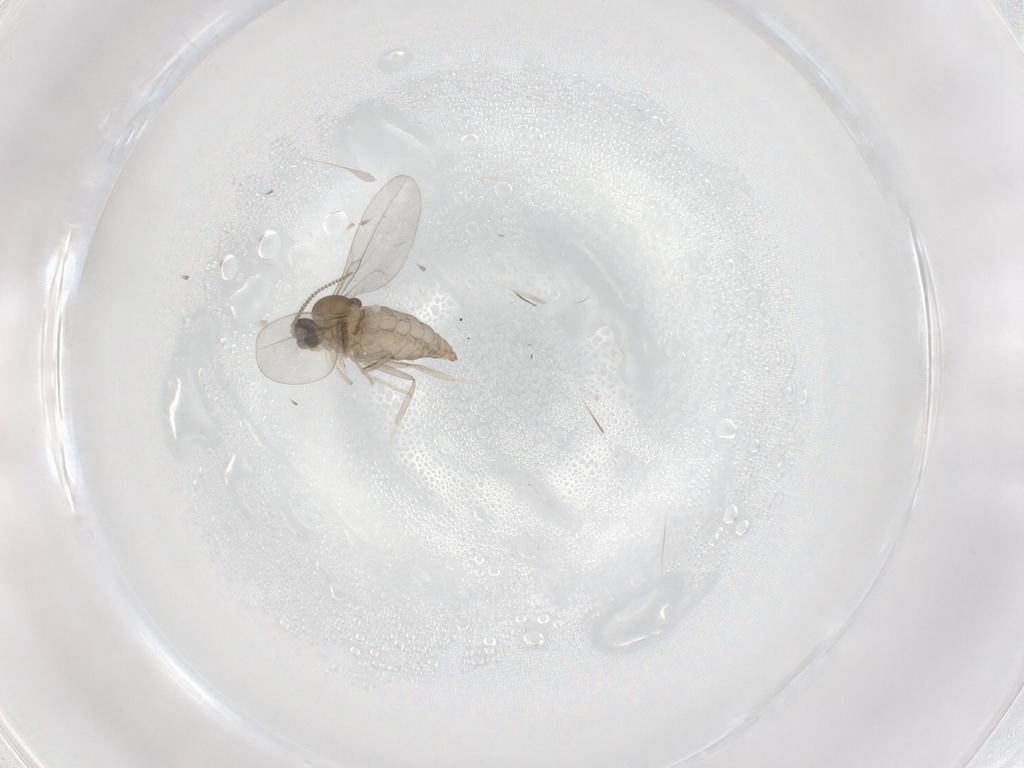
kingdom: Animalia
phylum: Arthropoda
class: Insecta
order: Diptera
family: Cecidomyiidae
